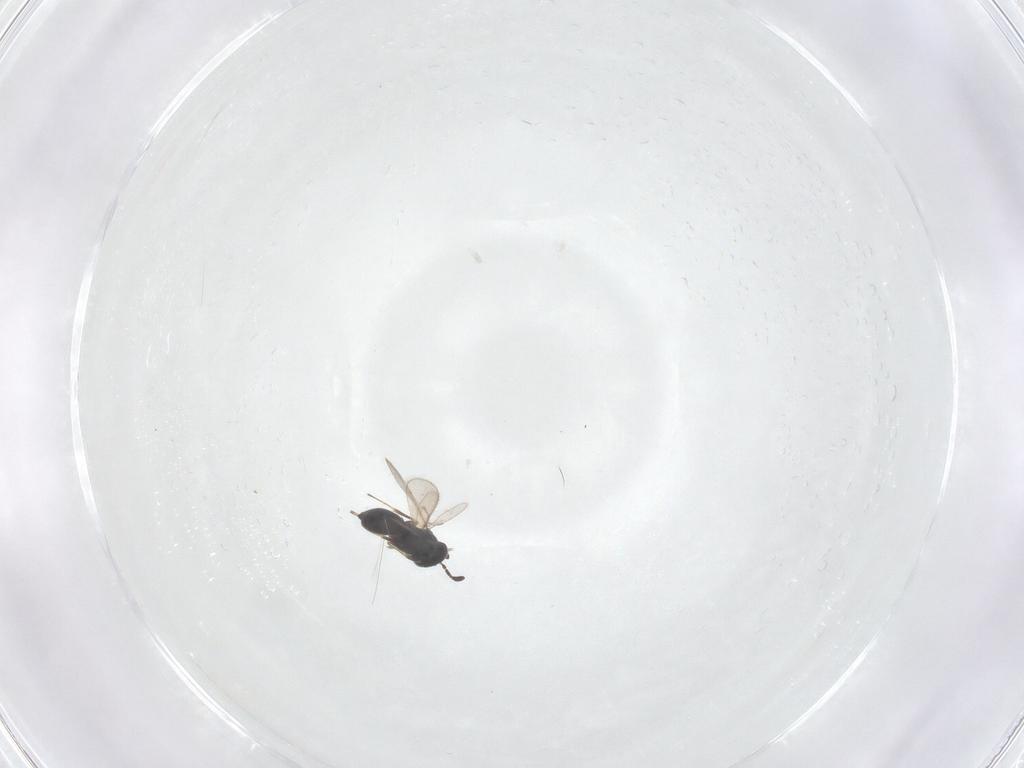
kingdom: Animalia
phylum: Arthropoda
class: Insecta
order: Hymenoptera
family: Scelionidae
